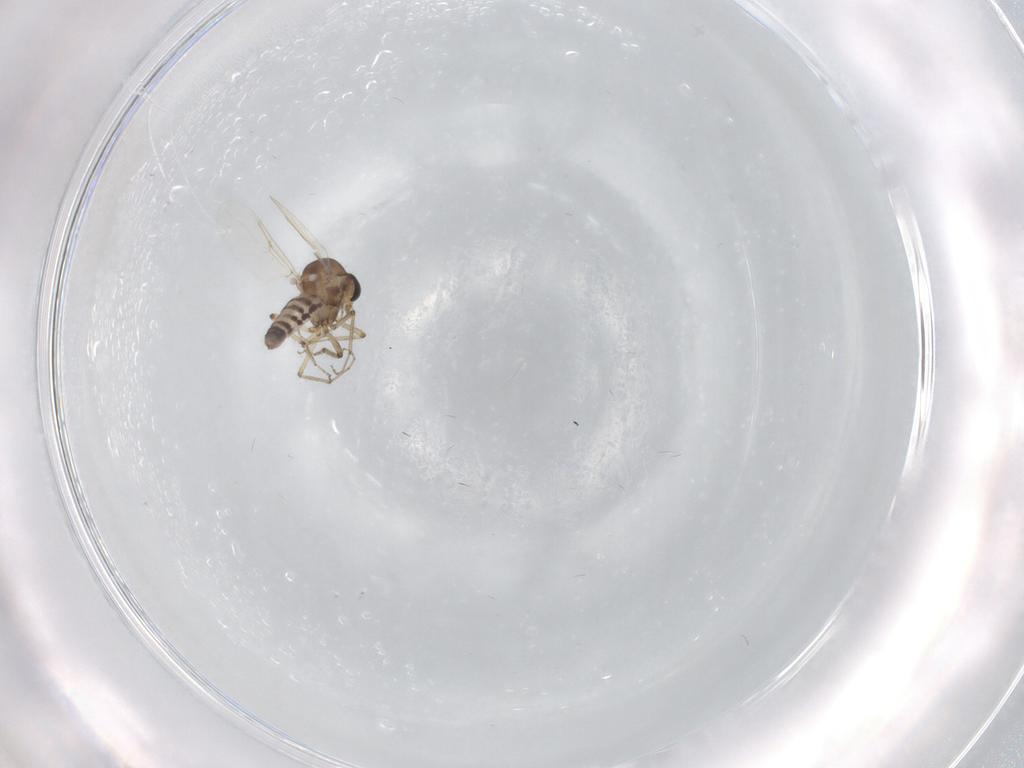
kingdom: Animalia
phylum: Arthropoda
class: Insecta
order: Diptera
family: Ceratopogonidae
